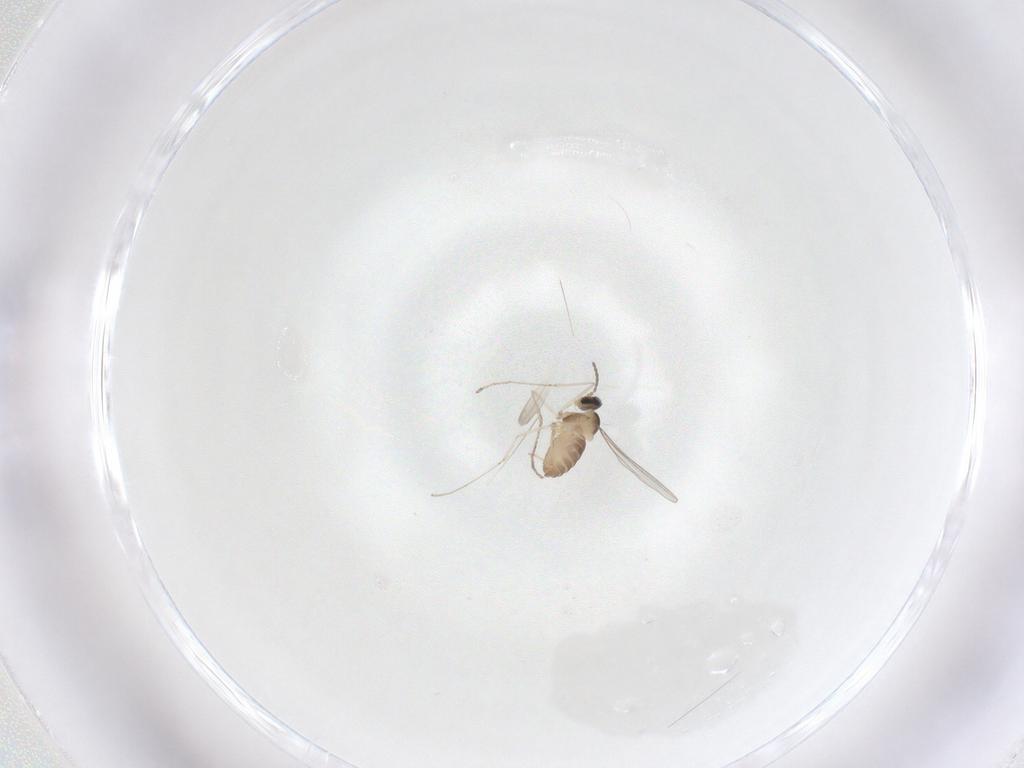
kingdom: Animalia
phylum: Arthropoda
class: Insecta
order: Diptera
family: Cecidomyiidae
